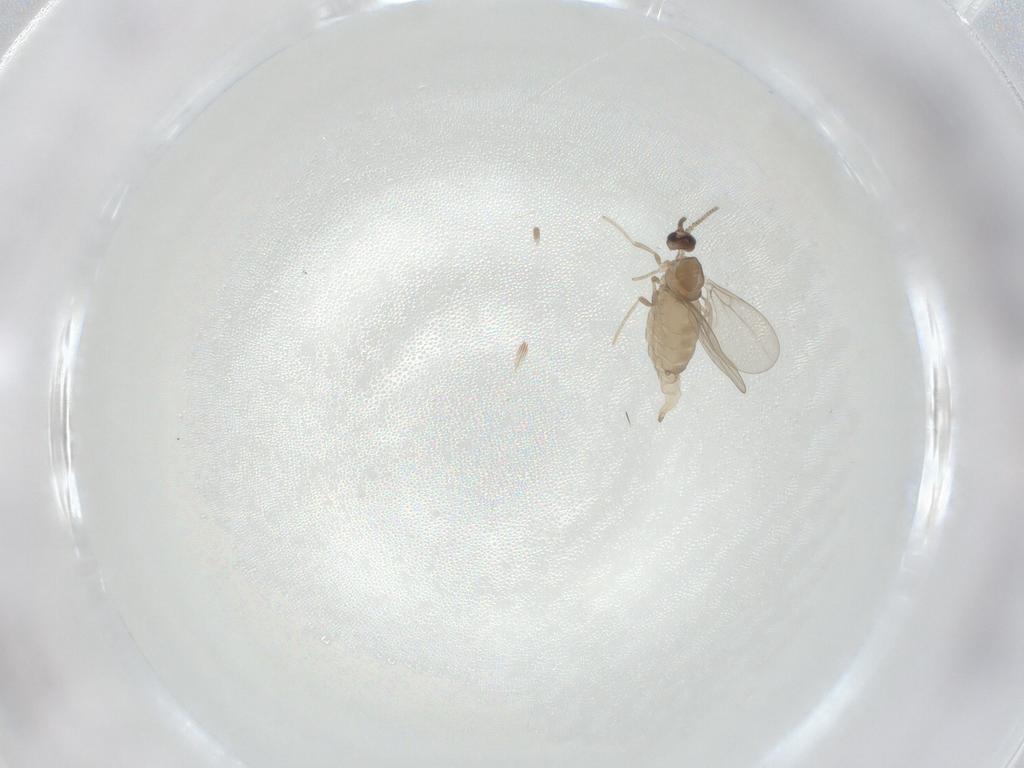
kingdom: Animalia
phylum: Arthropoda
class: Insecta
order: Diptera
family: Cecidomyiidae
